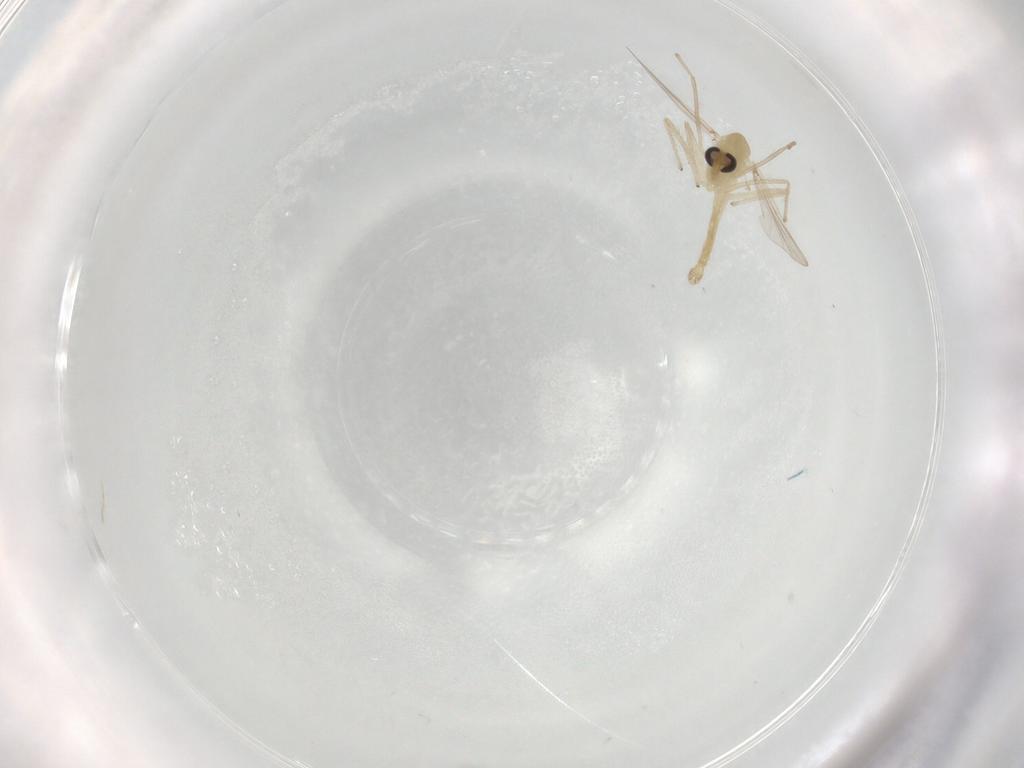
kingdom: Animalia
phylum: Arthropoda
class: Insecta
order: Diptera
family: Chironomidae
